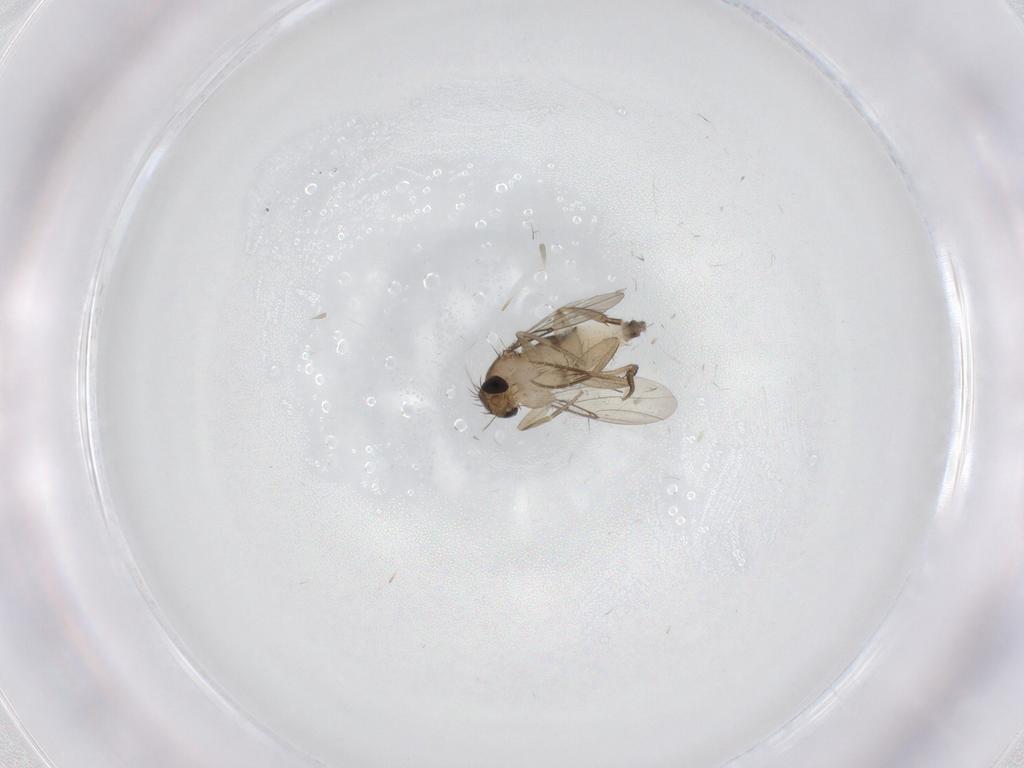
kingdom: Animalia
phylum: Arthropoda
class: Insecta
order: Diptera
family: Phoridae
